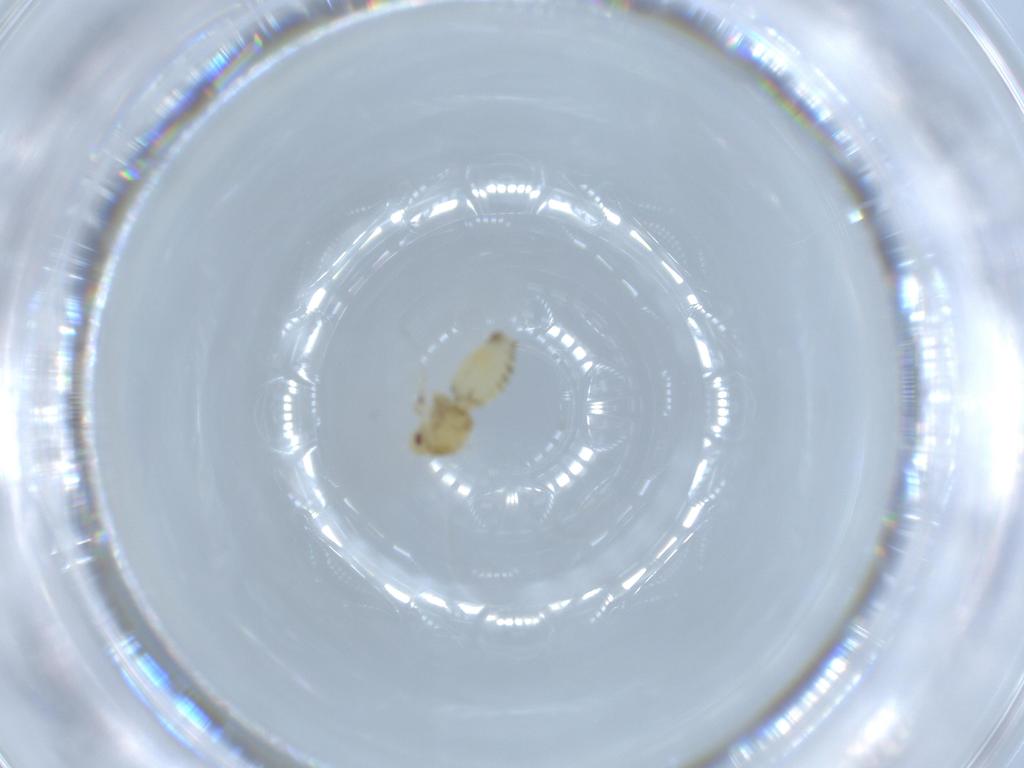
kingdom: Animalia
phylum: Arthropoda
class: Insecta
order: Hemiptera
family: Aleyrodidae
